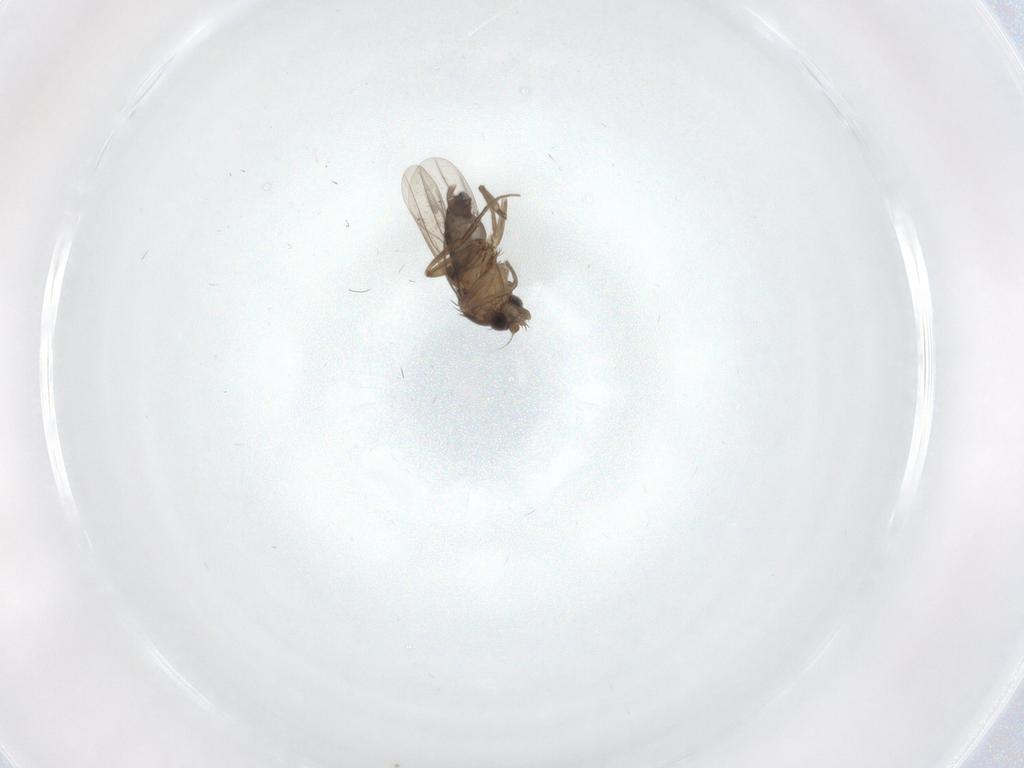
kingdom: Animalia
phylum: Arthropoda
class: Insecta
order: Diptera
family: Phoridae
